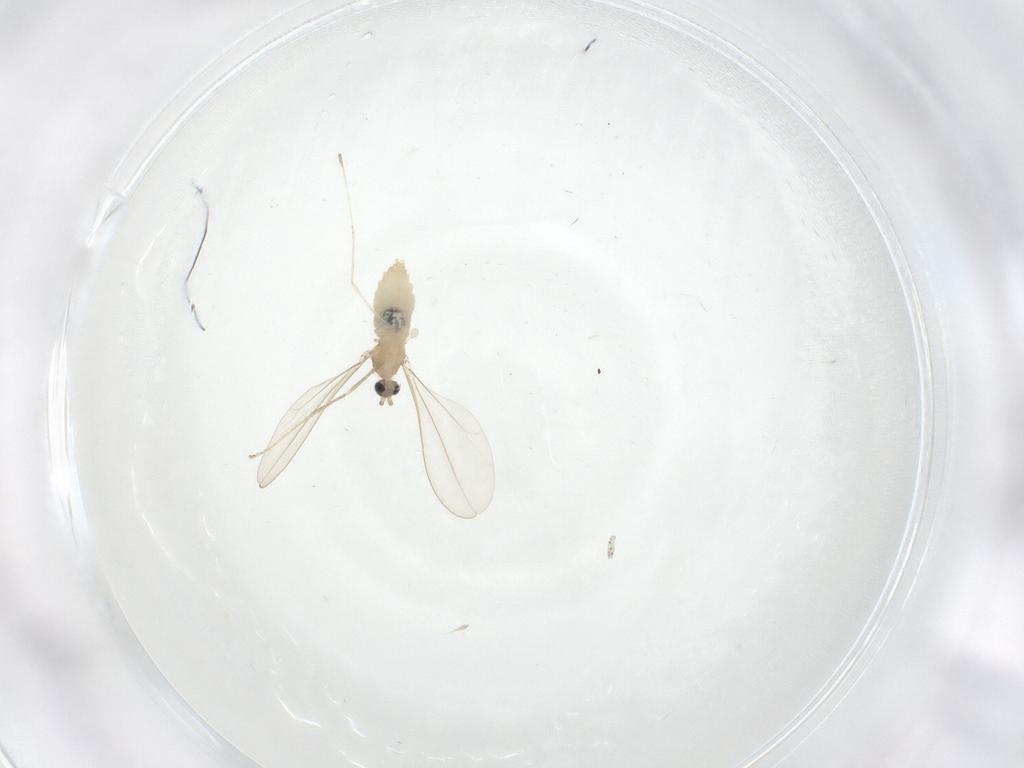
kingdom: Animalia
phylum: Arthropoda
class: Insecta
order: Diptera
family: Cecidomyiidae
